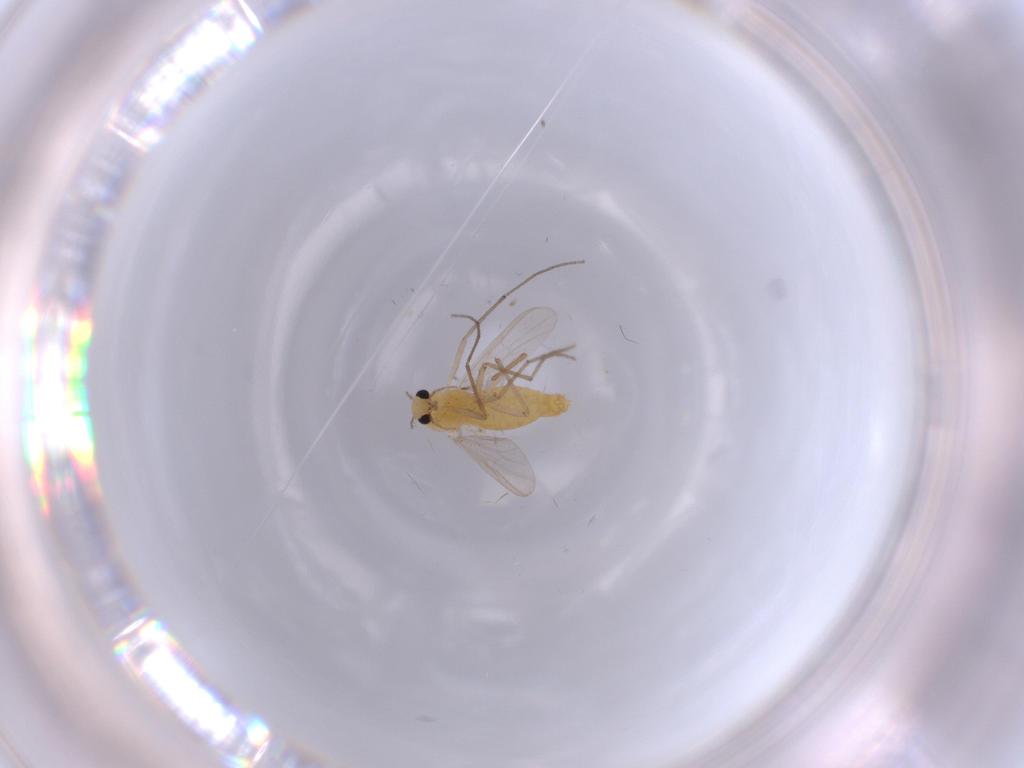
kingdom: Animalia
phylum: Arthropoda
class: Insecta
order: Diptera
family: Chironomidae
